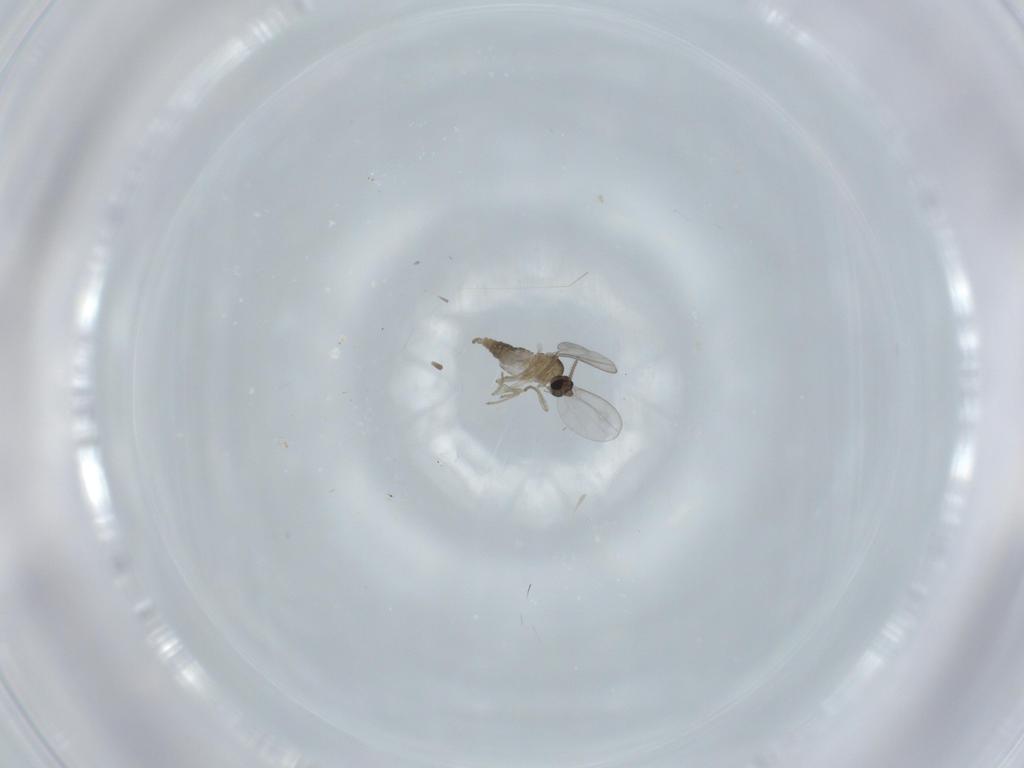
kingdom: Animalia
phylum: Arthropoda
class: Insecta
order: Diptera
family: Cecidomyiidae
